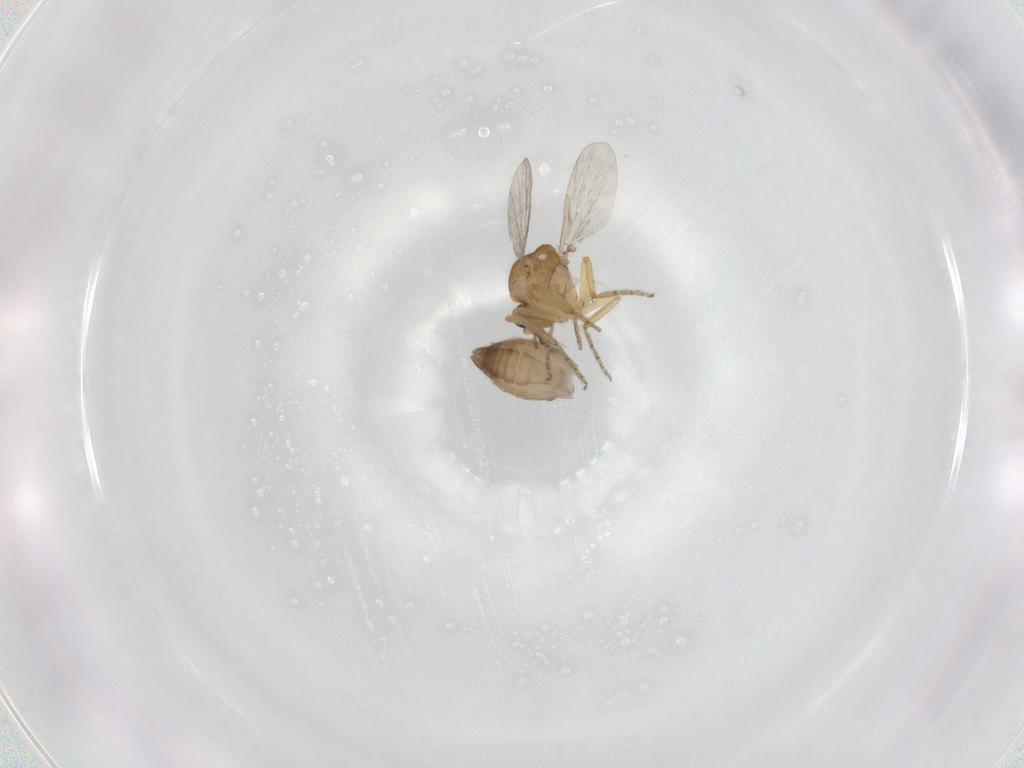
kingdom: Animalia
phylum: Arthropoda
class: Insecta
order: Diptera
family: Ceratopogonidae
